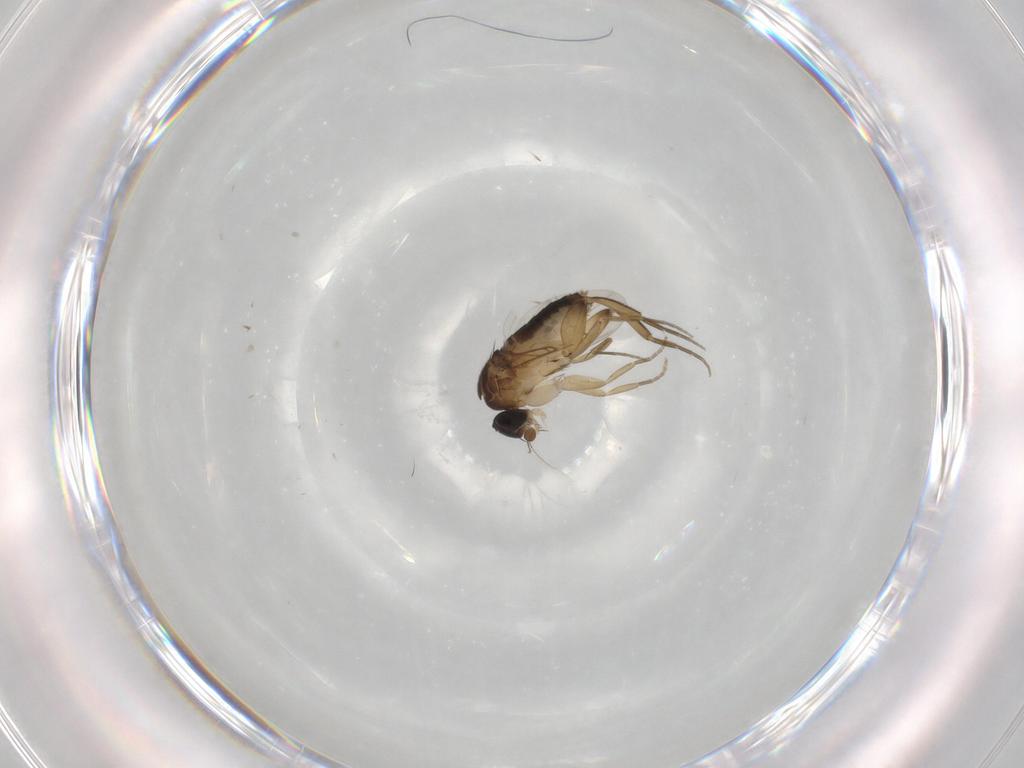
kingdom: Animalia
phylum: Arthropoda
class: Insecta
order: Diptera
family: Phoridae
